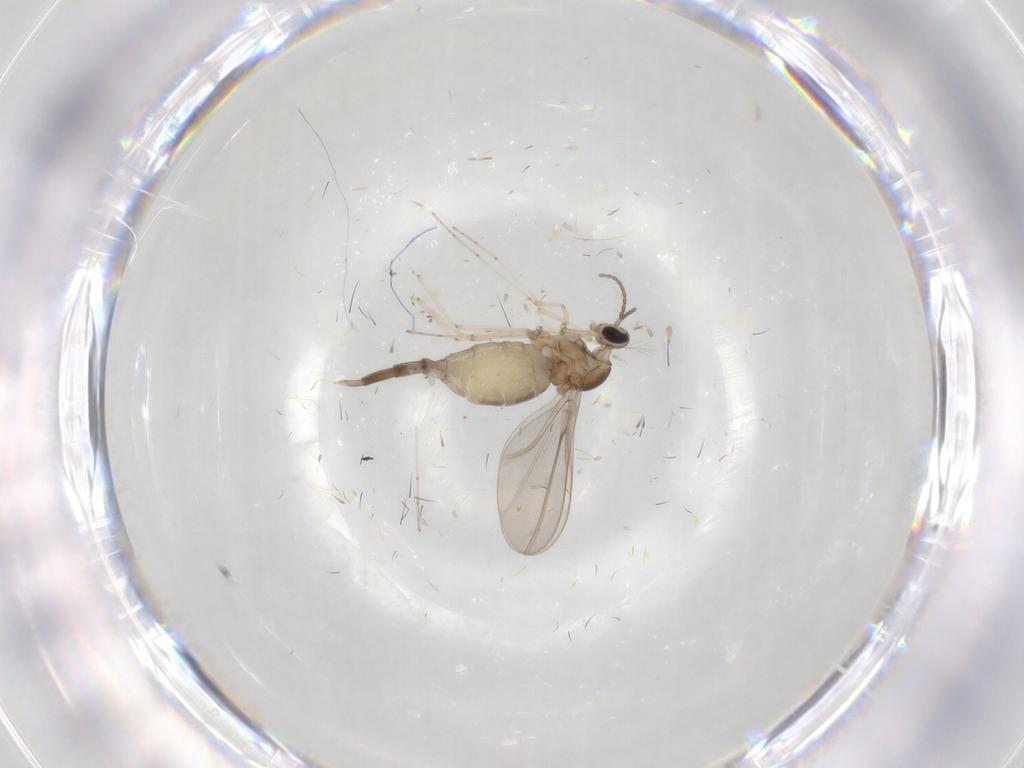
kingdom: Animalia
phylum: Arthropoda
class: Insecta
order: Diptera
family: Cecidomyiidae
